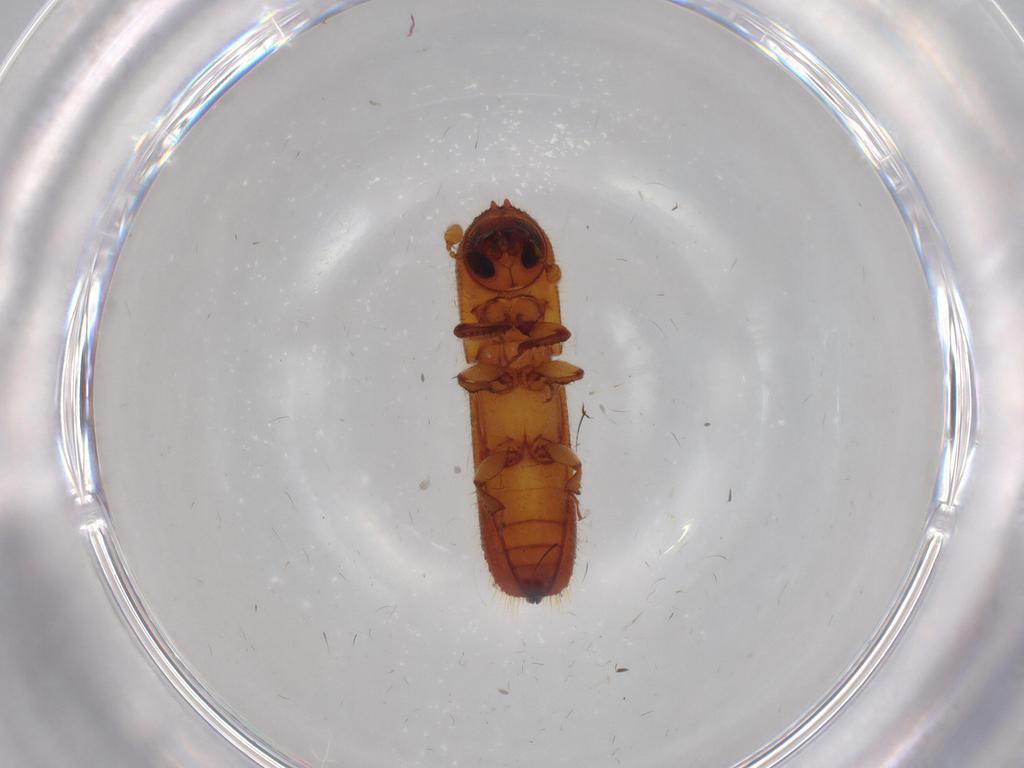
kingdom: Animalia
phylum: Arthropoda
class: Insecta
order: Coleoptera
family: Curculionidae
